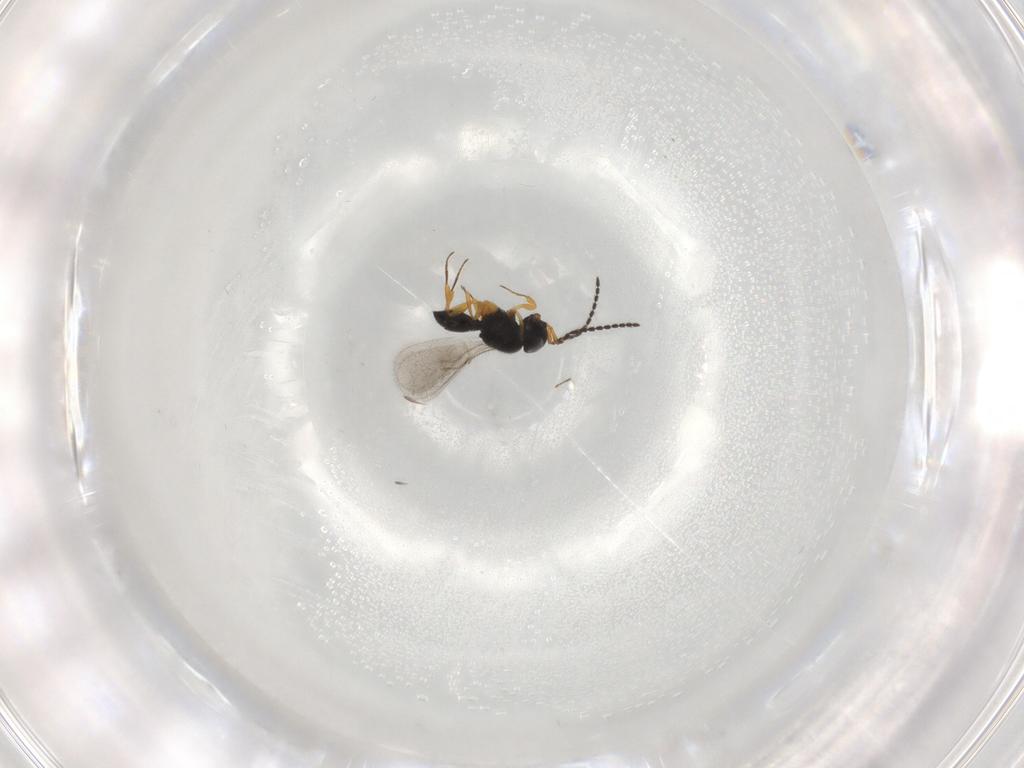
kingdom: Animalia
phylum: Arthropoda
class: Insecta
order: Hymenoptera
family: Scelionidae
